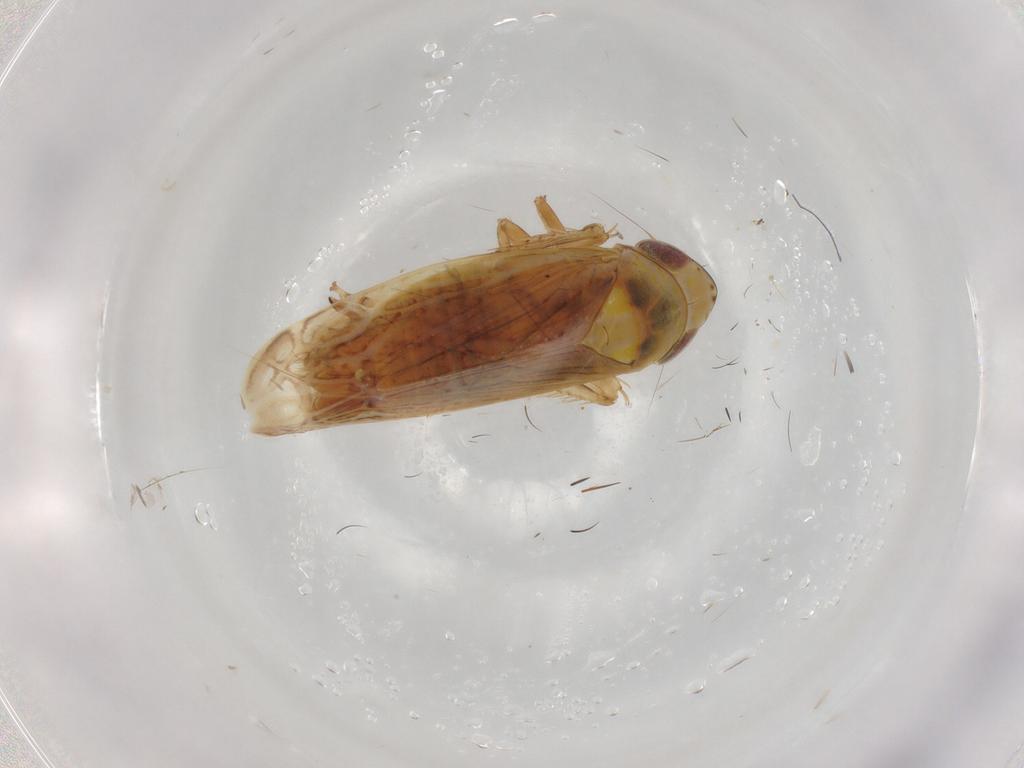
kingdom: Animalia
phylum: Arthropoda
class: Insecta
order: Hemiptera
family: Cicadellidae
